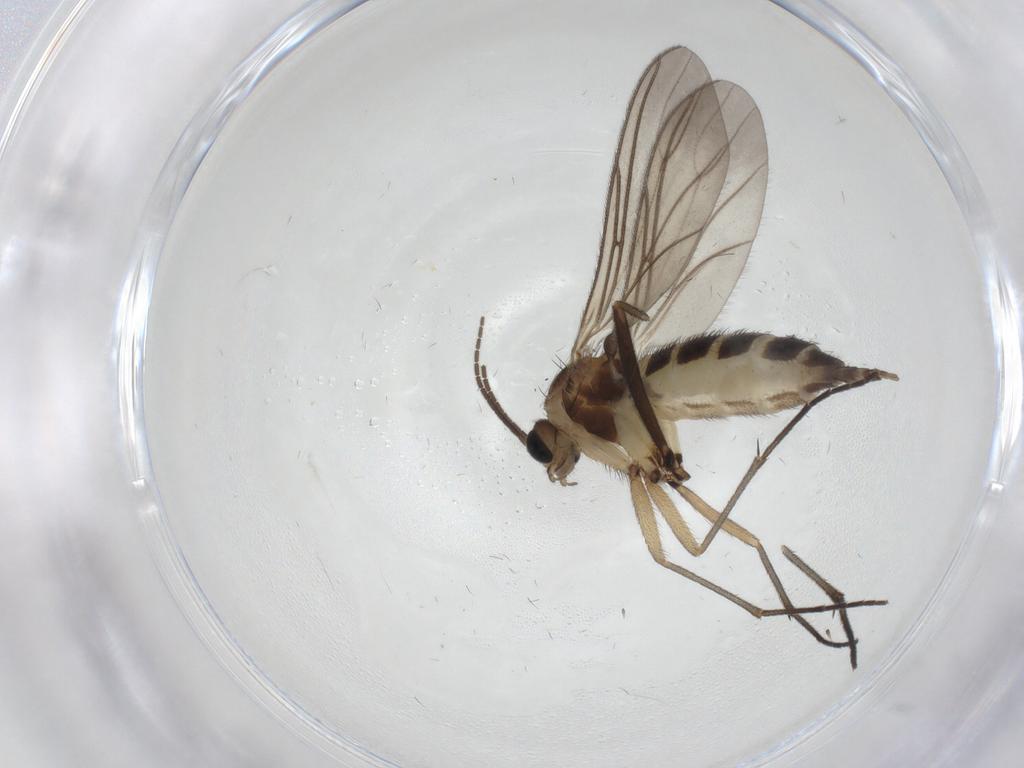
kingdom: Animalia
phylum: Arthropoda
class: Insecta
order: Diptera
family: Sciaridae
